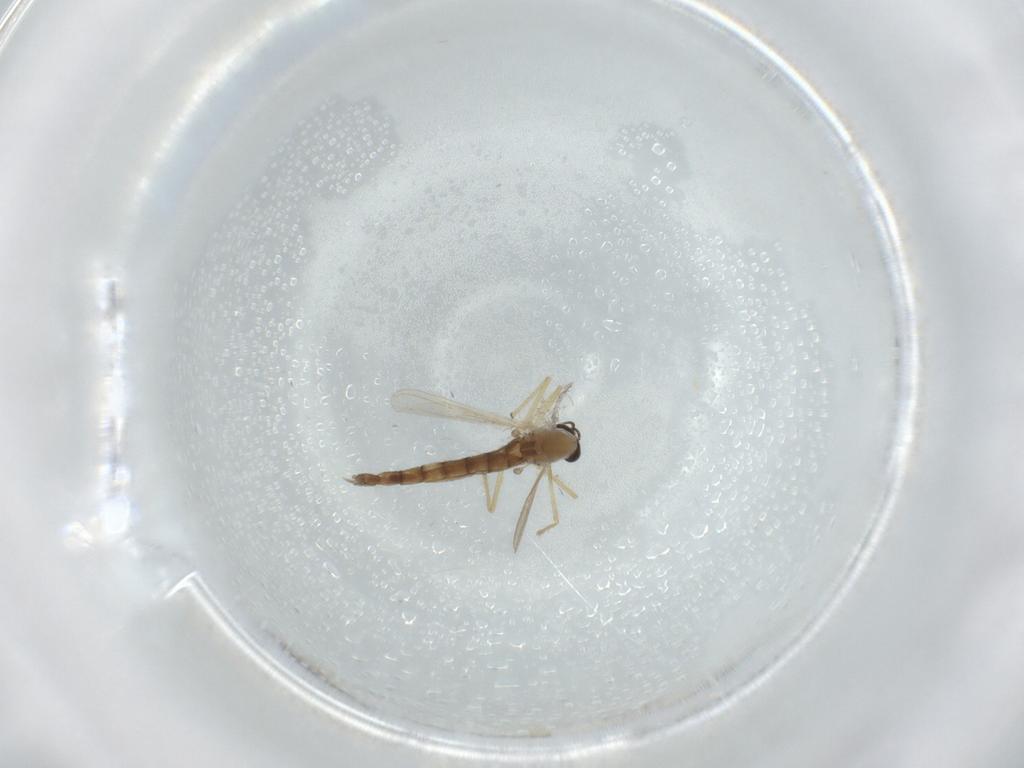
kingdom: Animalia
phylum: Arthropoda
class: Insecta
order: Diptera
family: Chironomidae
